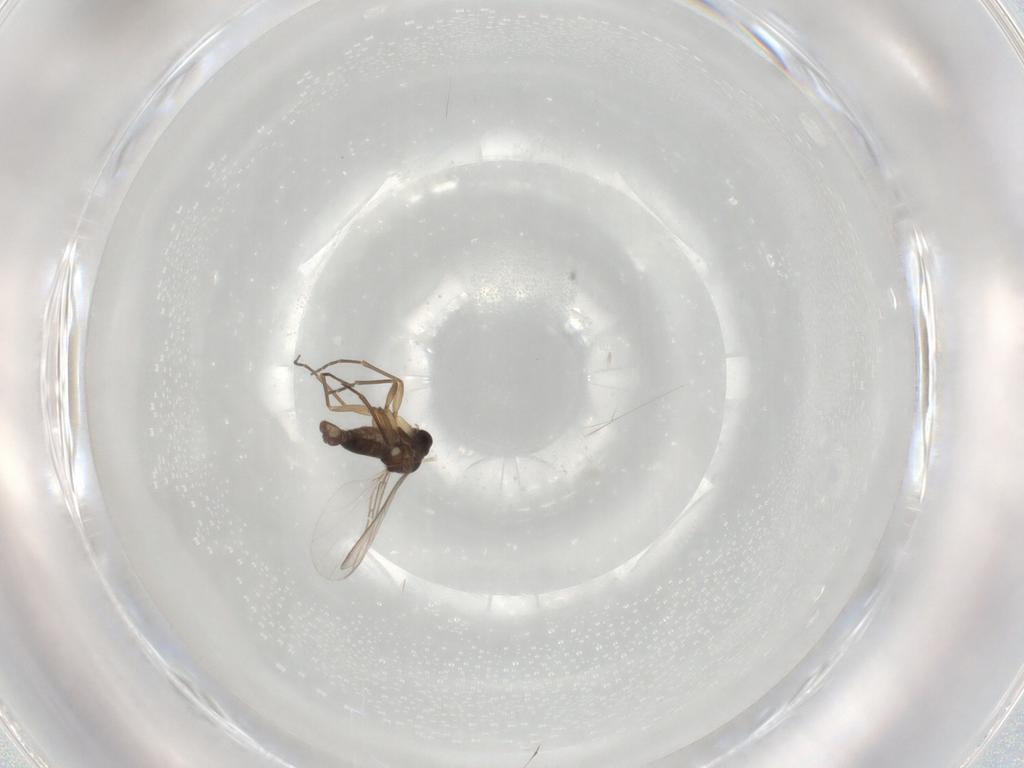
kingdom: Animalia
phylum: Arthropoda
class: Insecta
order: Diptera
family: Sciaridae
